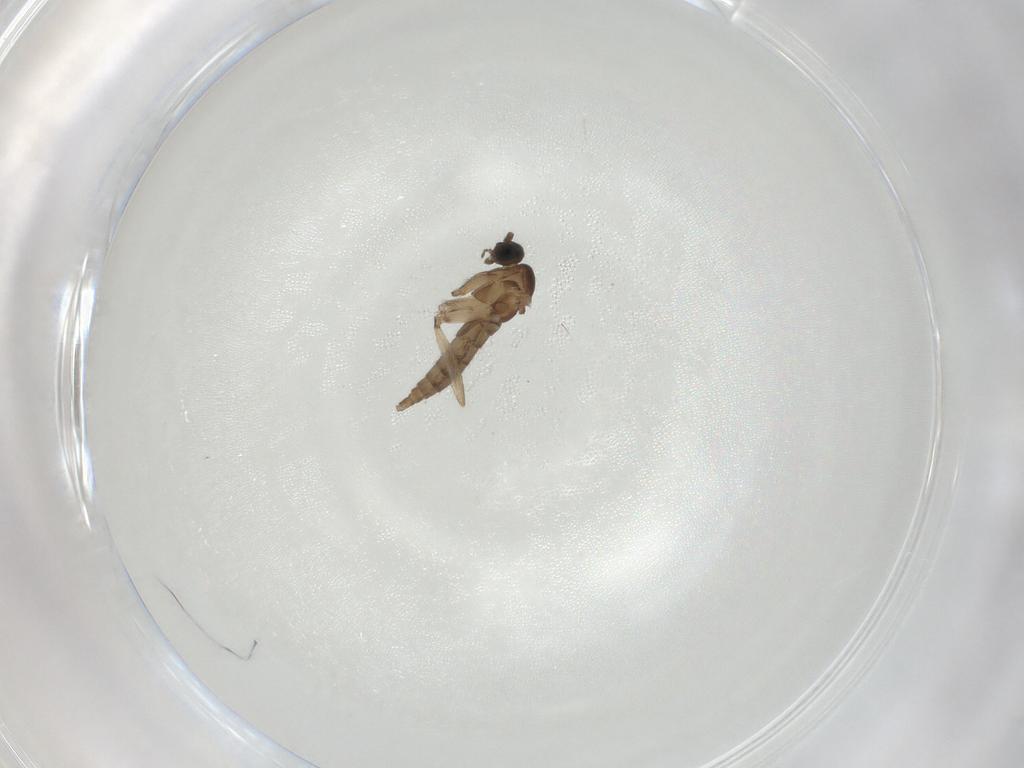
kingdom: Animalia
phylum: Arthropoda
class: Insecta
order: Diptera
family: Sciaridae
